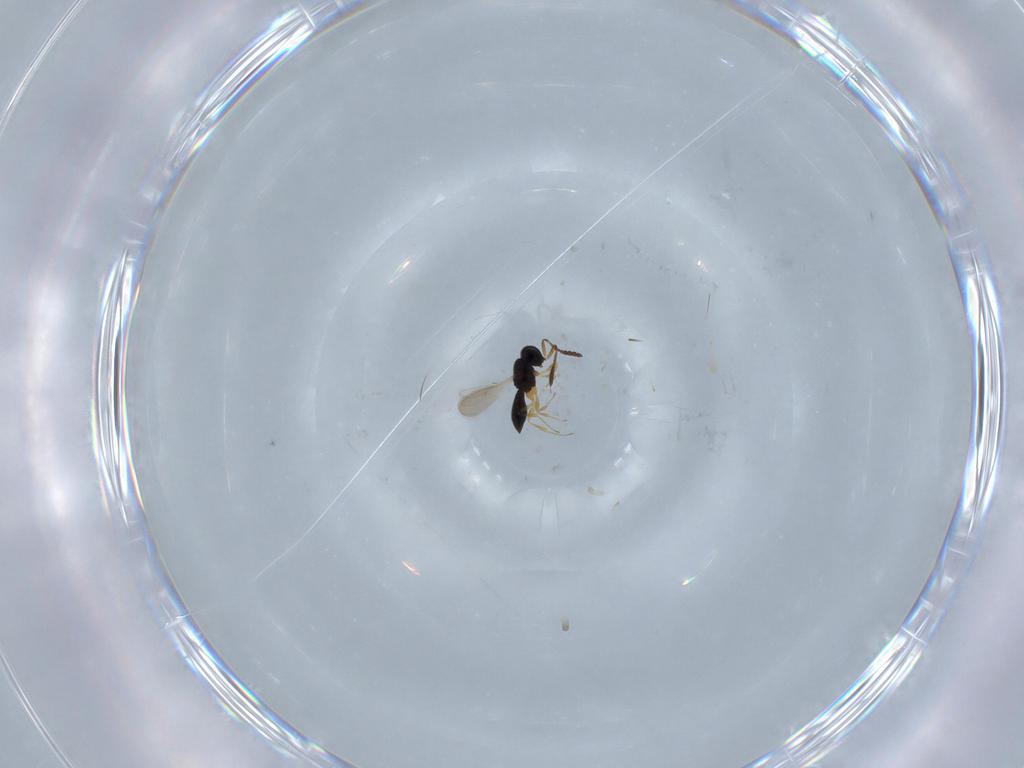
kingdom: Animalia
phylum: Arthropoda
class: Insecta
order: Hymenoptera
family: Scelionidae
